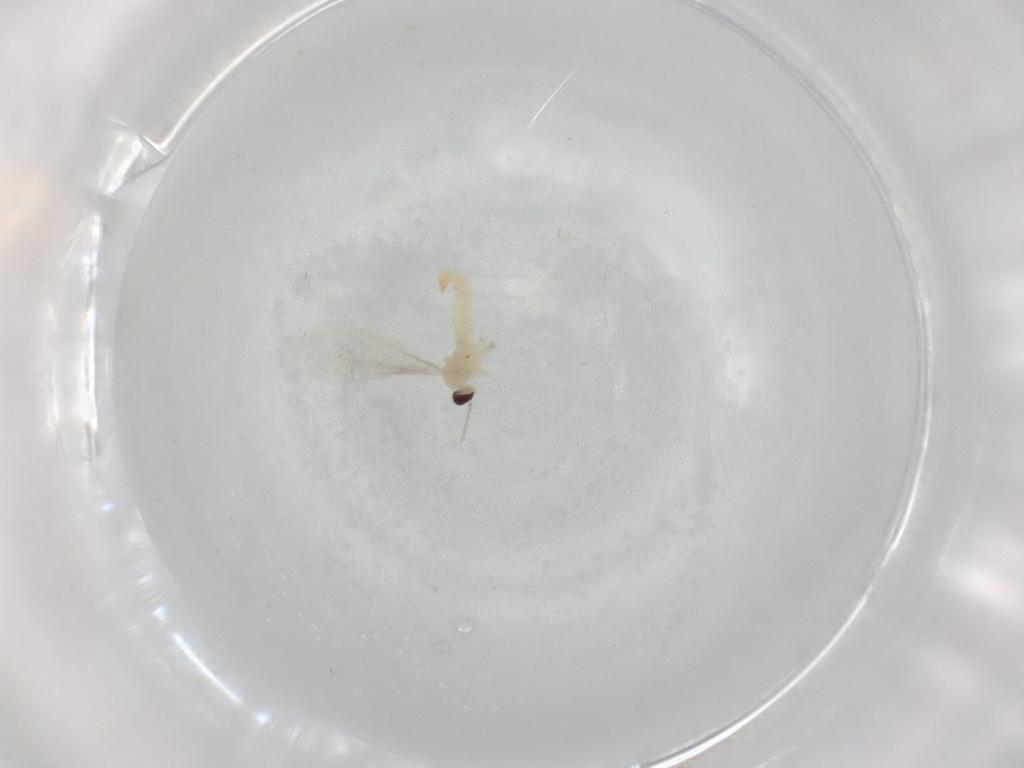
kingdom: Animalia
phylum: Arthropoda
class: Insecta
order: Diptera
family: Cecidomyiidae
